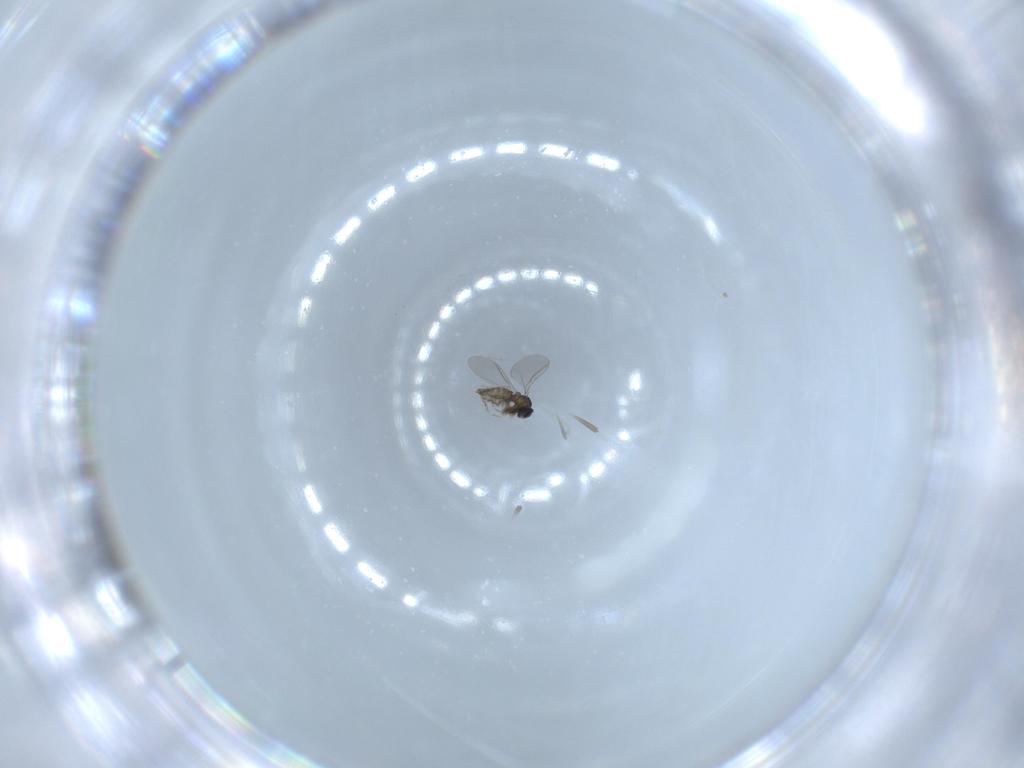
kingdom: Animalia
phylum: Arthropoda
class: Insecta
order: Diptera
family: Cecidomyiidae
